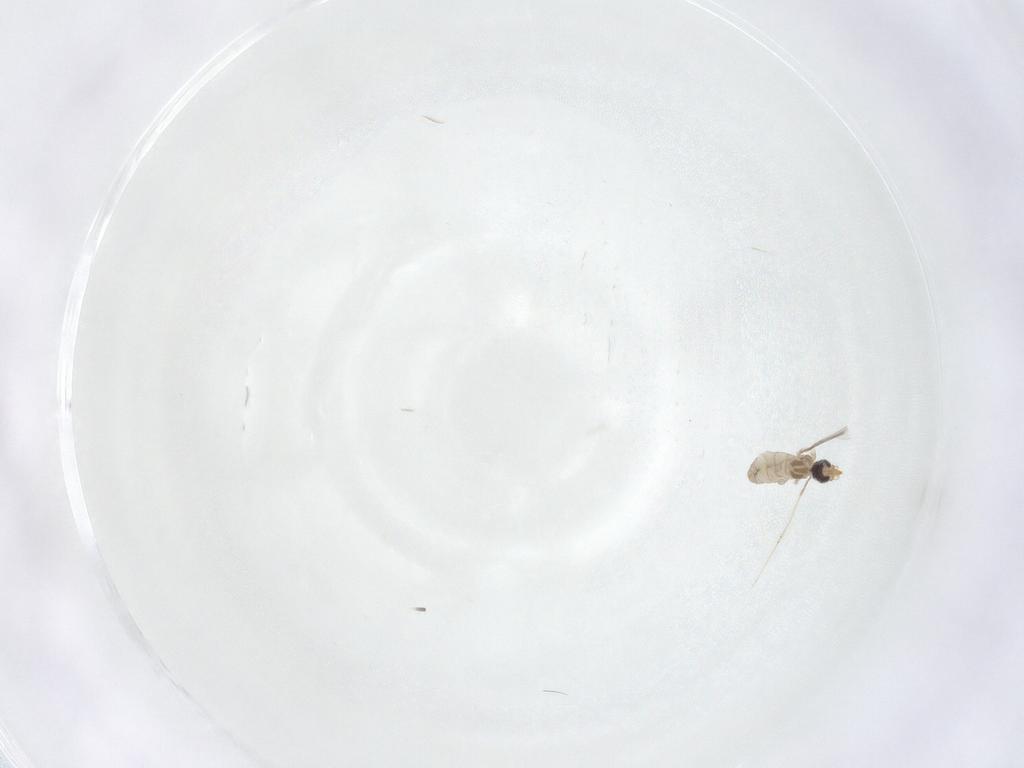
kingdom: Animalia
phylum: Arthropoda
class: Insecta
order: Diptera
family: Cecidomyiidae
